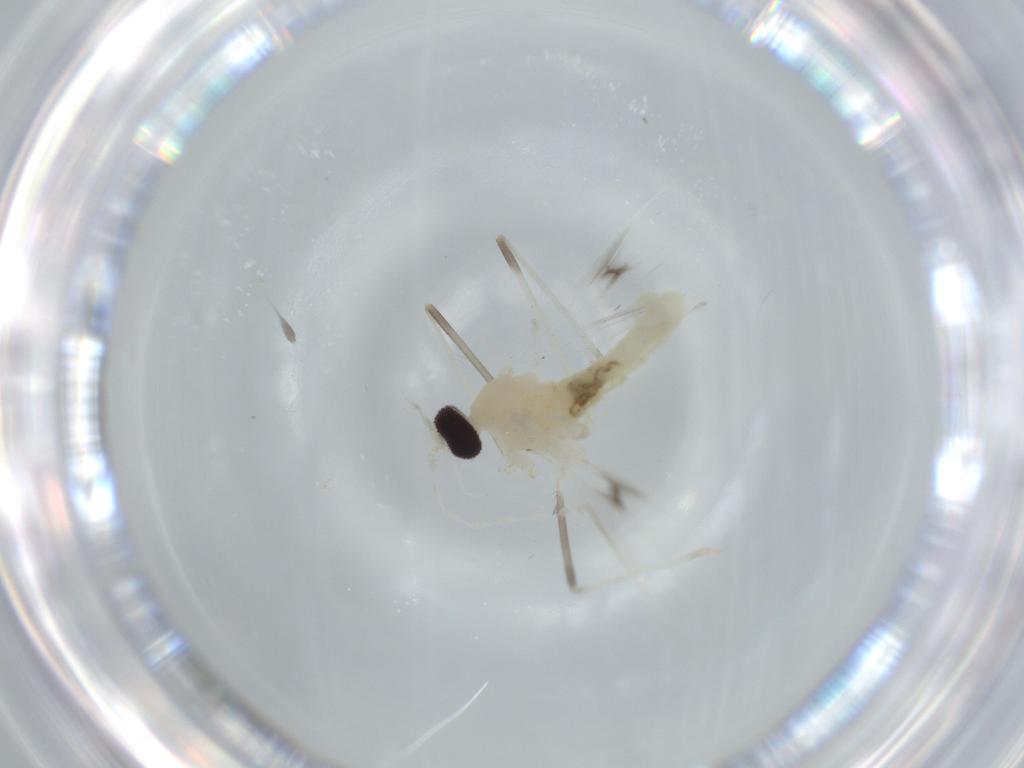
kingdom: Animalia
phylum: Arthropoda
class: Insecta
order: Diptera
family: Cecidomyiidae
